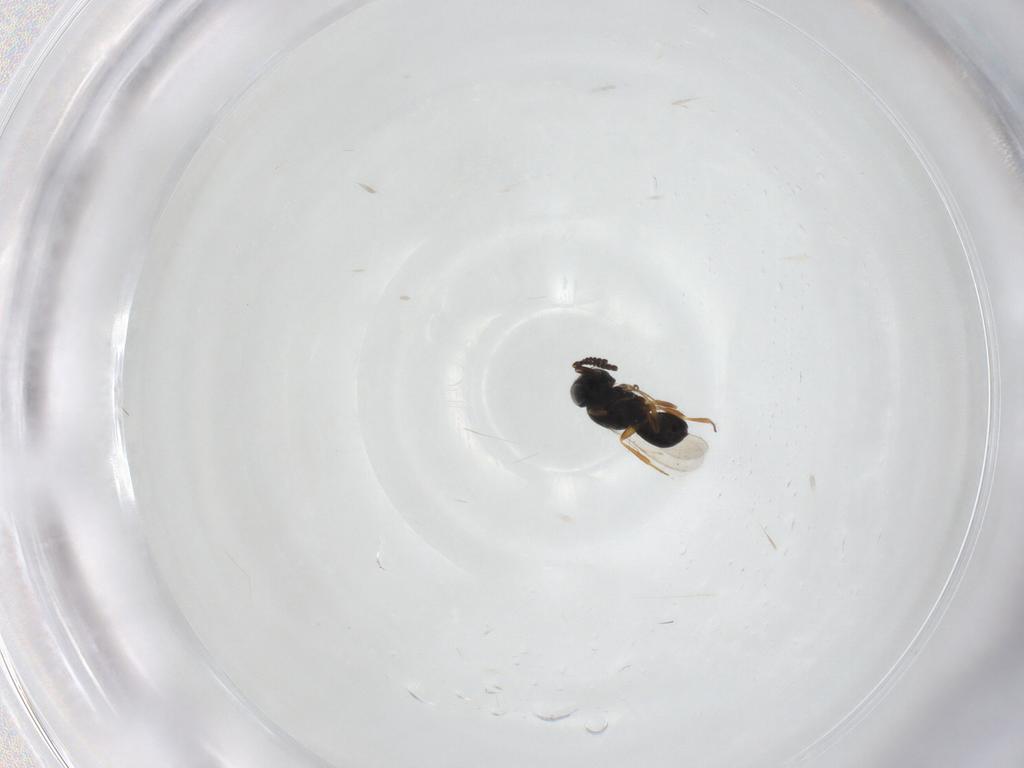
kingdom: Animalia
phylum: Arthropoda
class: Insecta
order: Hymenoptera
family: Scelionidae
